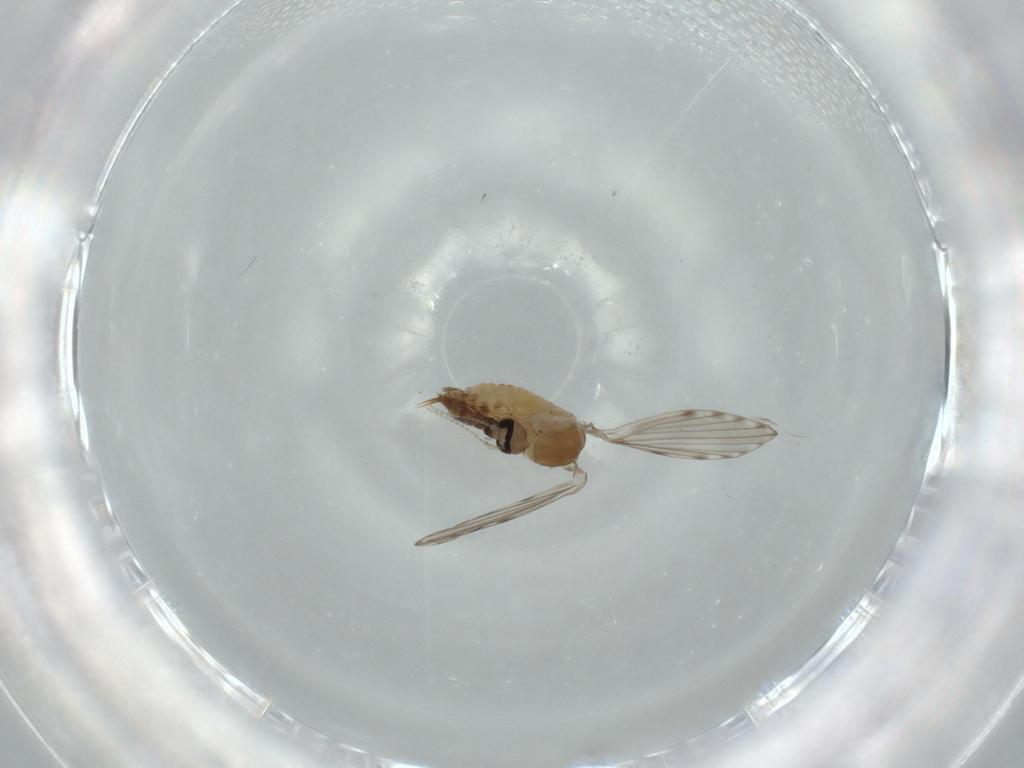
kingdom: Animalia
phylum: Arthropoda
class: Insecta
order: Diptera
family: Psychodidae
